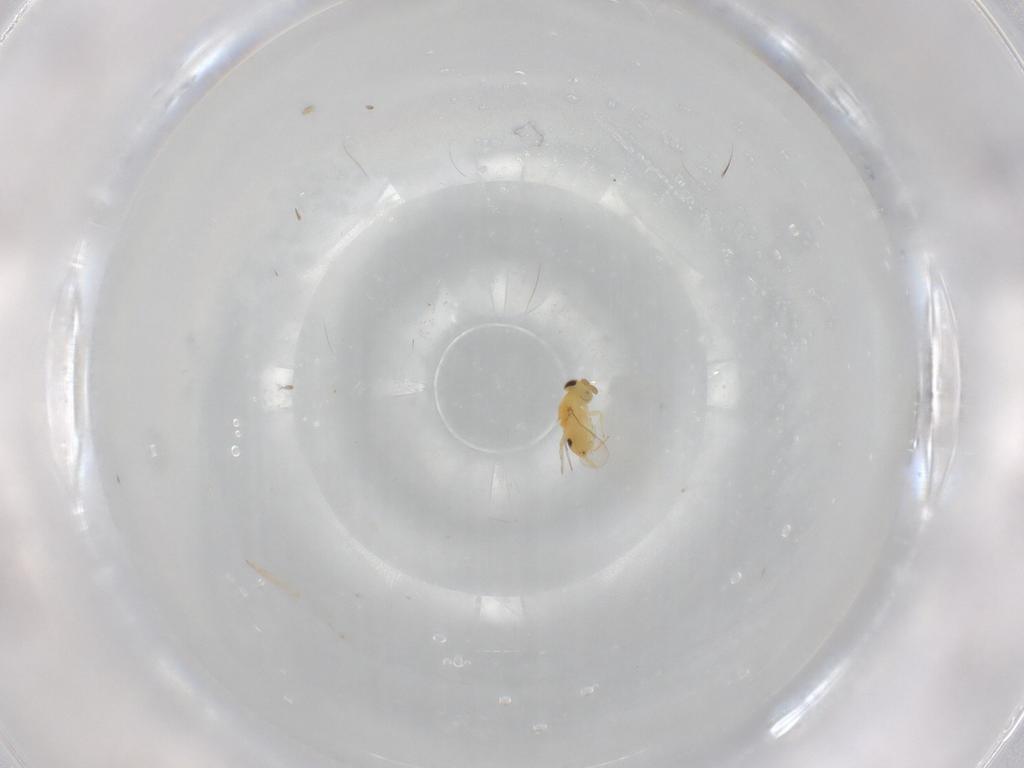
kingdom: Animalia
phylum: Arthropoda
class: Insecta
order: Hymenoptera
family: Aphelinidae
